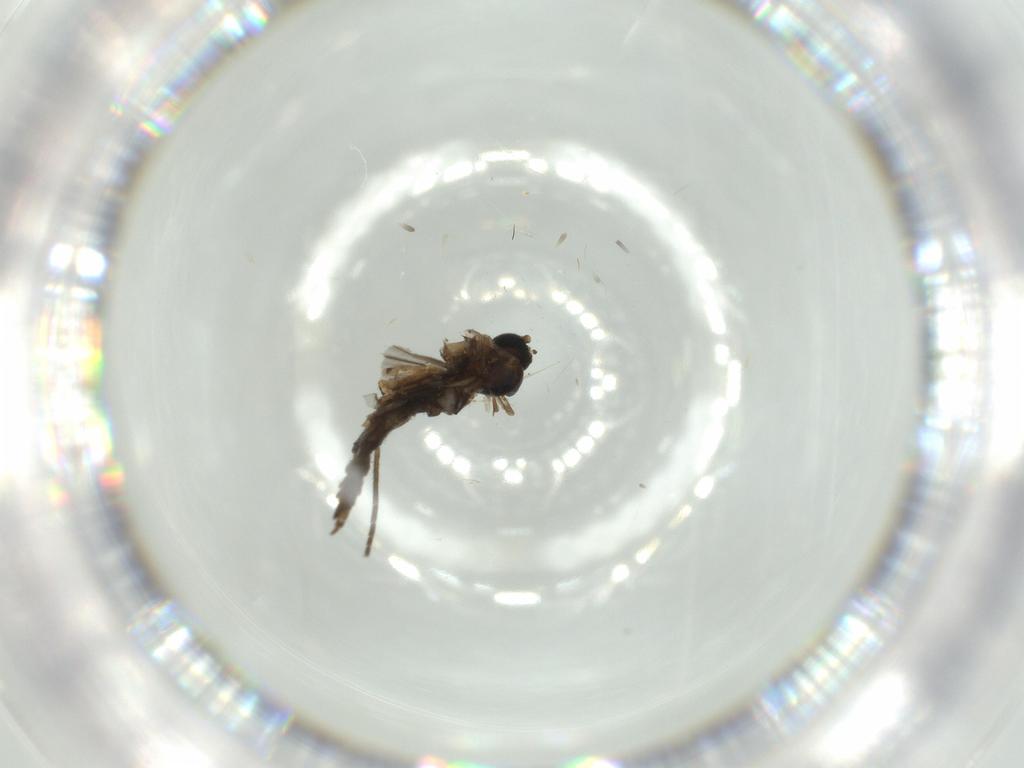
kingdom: Animalia
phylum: Arthropoda
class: Insecta
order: Diptera
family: Sciaridae
